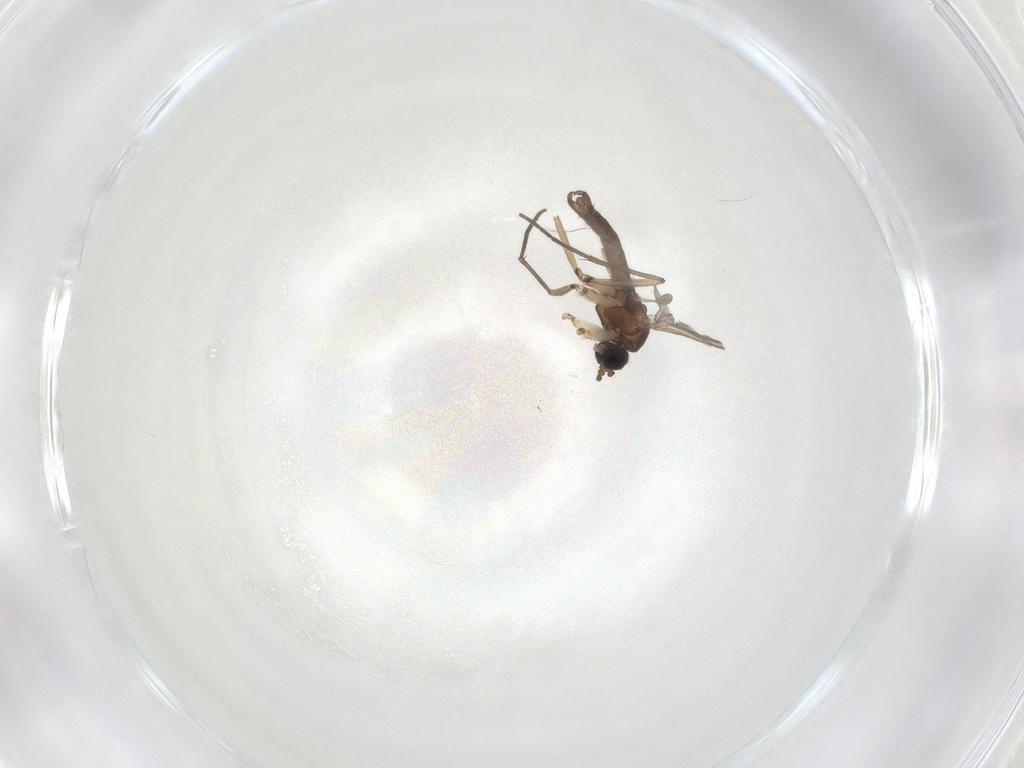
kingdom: Animalia
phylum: Arthropoda
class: Insecta
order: Diptera
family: Sciaridae
